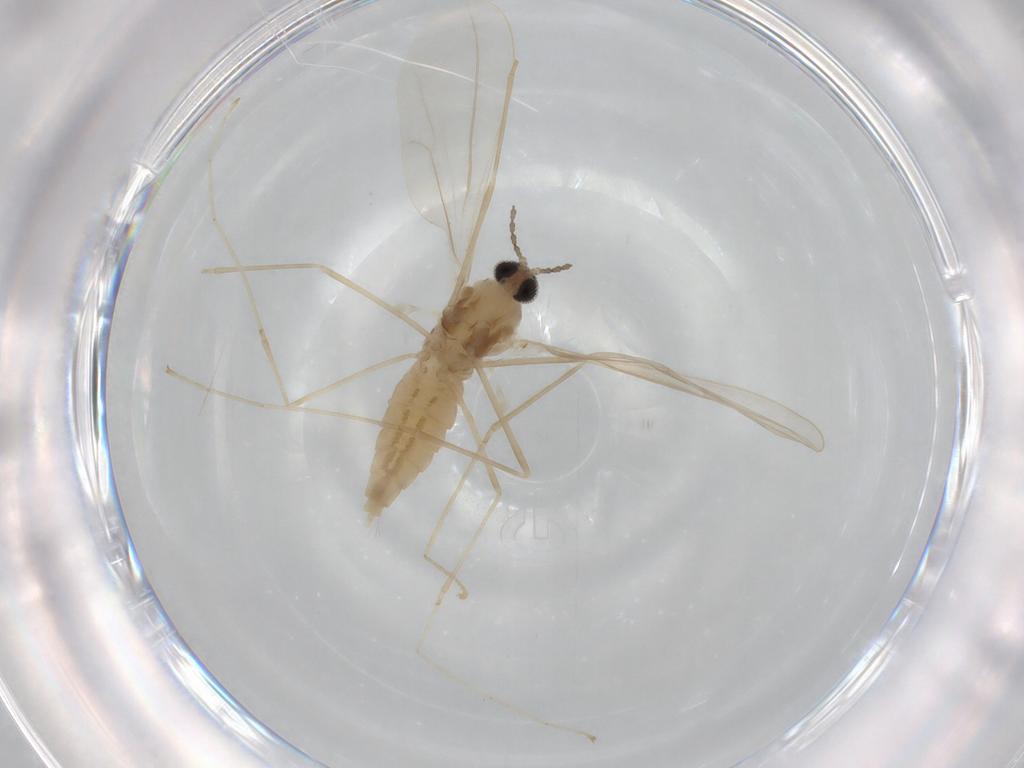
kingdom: Animalia
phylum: Arthropoda
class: Insecta
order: Diptera
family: Cecidomyiidae
